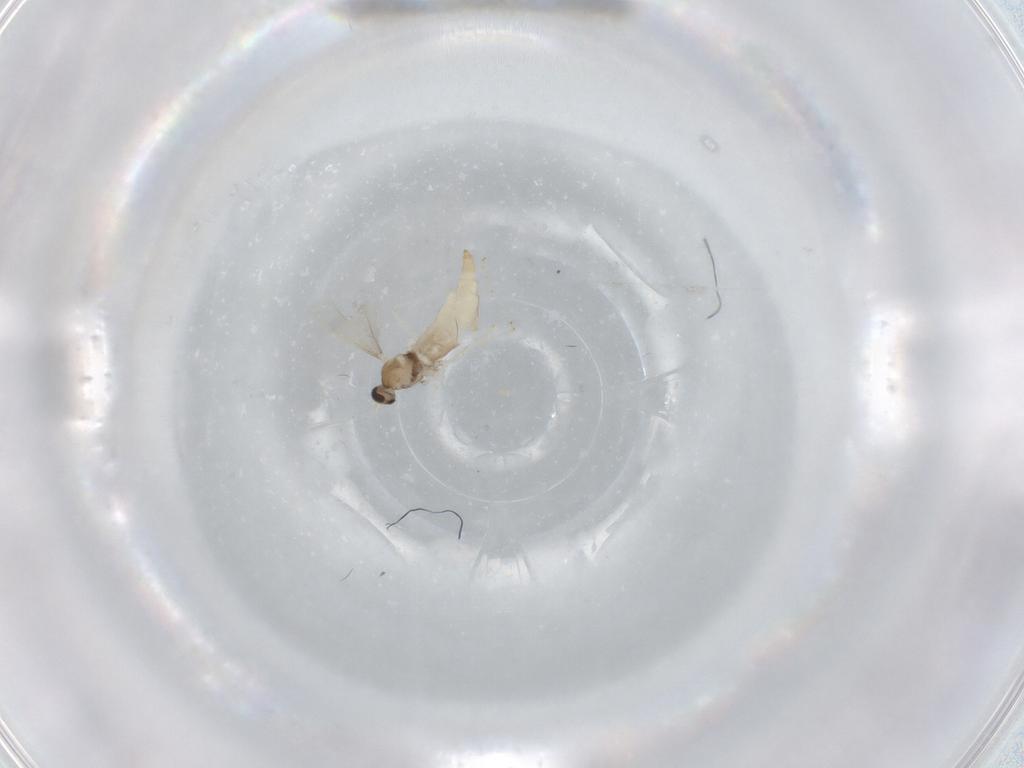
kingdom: Animalia
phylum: Arthropoda
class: Insecta
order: Diptera
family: Cecidomyiidae
